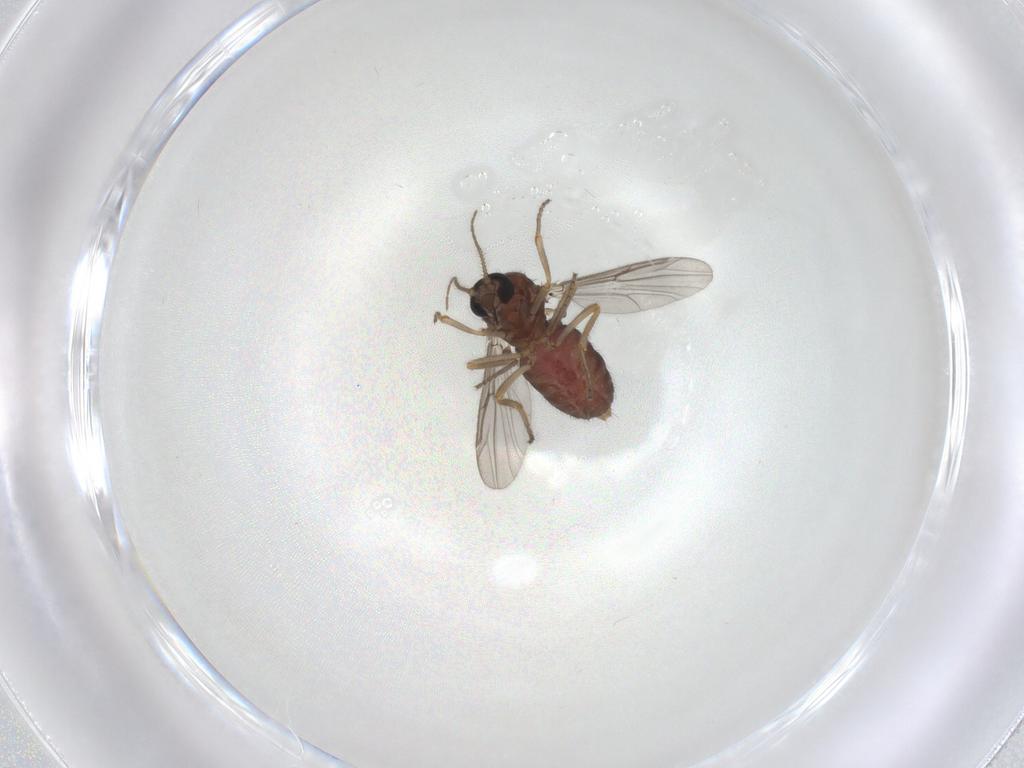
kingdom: Animalia
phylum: Arthropoda
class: Insecta
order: Diptera
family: Ceratopogonidae
